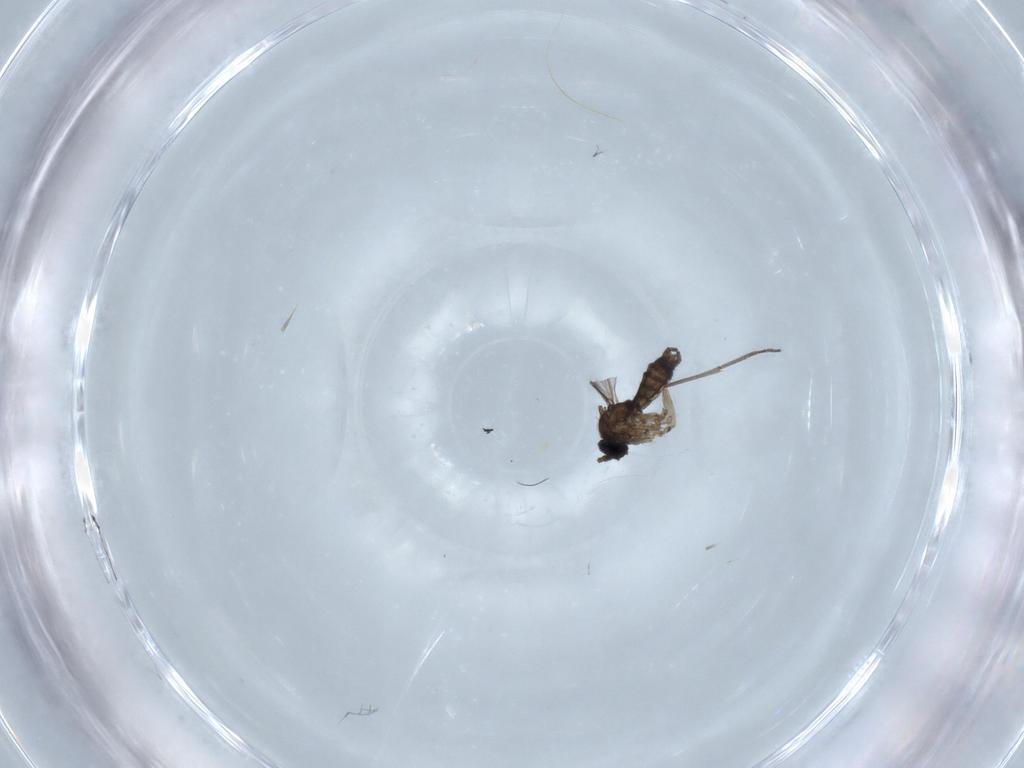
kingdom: Animalia
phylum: Arthropoda
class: Insecta
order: Diptera
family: Sciaridae
